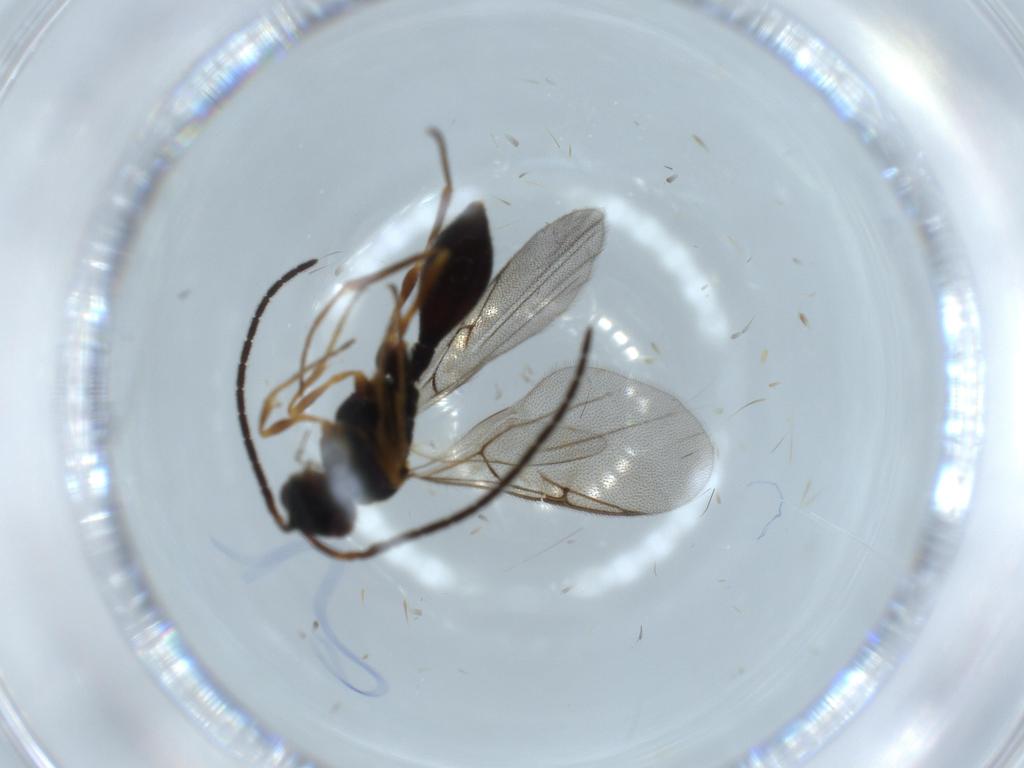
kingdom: Animalia
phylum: Arthropoda
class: Insecta
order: Hymenoptera
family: Diapriidae
